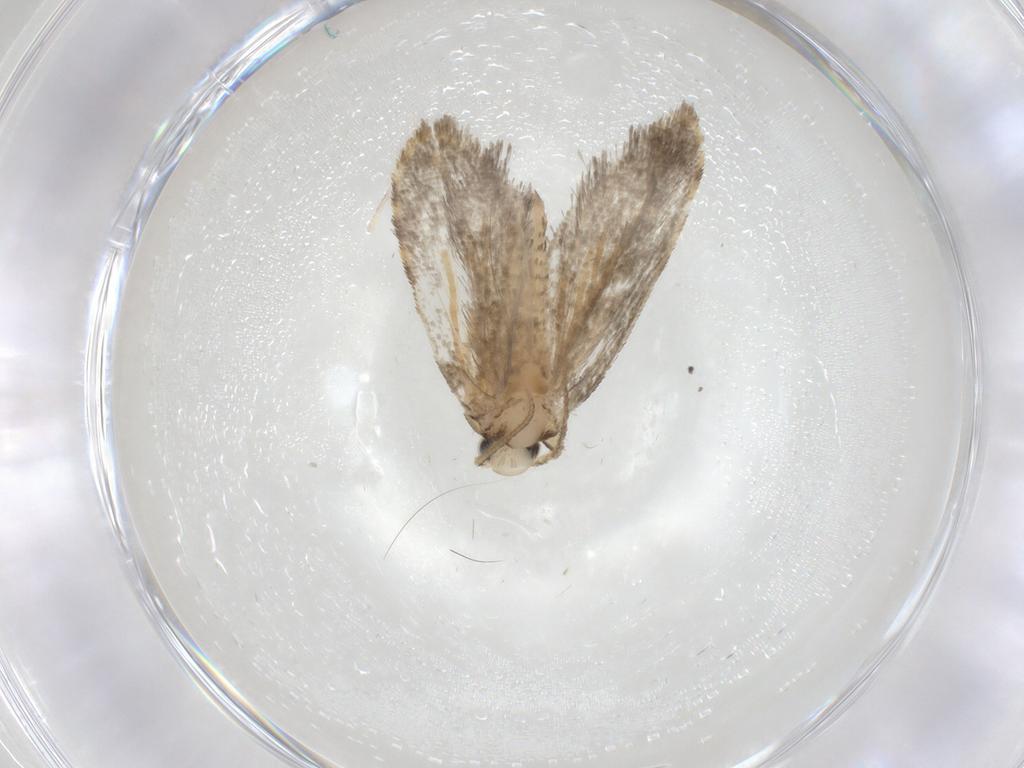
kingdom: Animalia
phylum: Arthropoda
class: Insecta
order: Lepidoptera
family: Psychidae
